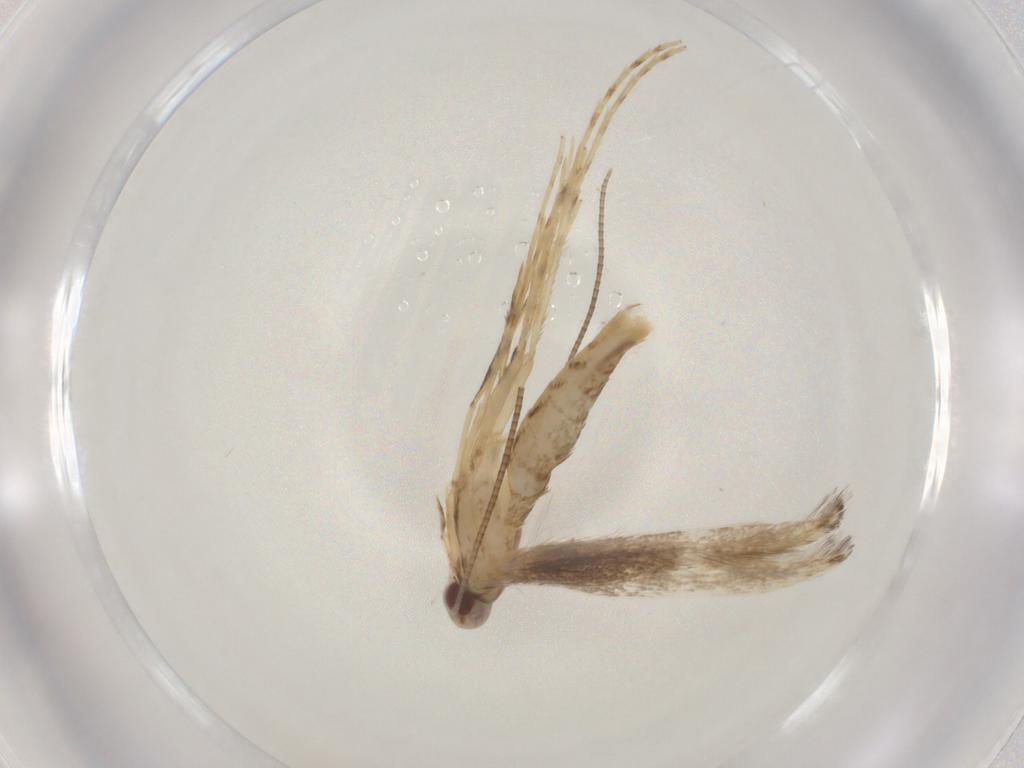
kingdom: Animalia
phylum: Arthropoda
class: Insecta
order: Lepidoptera
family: Gracillariidae
